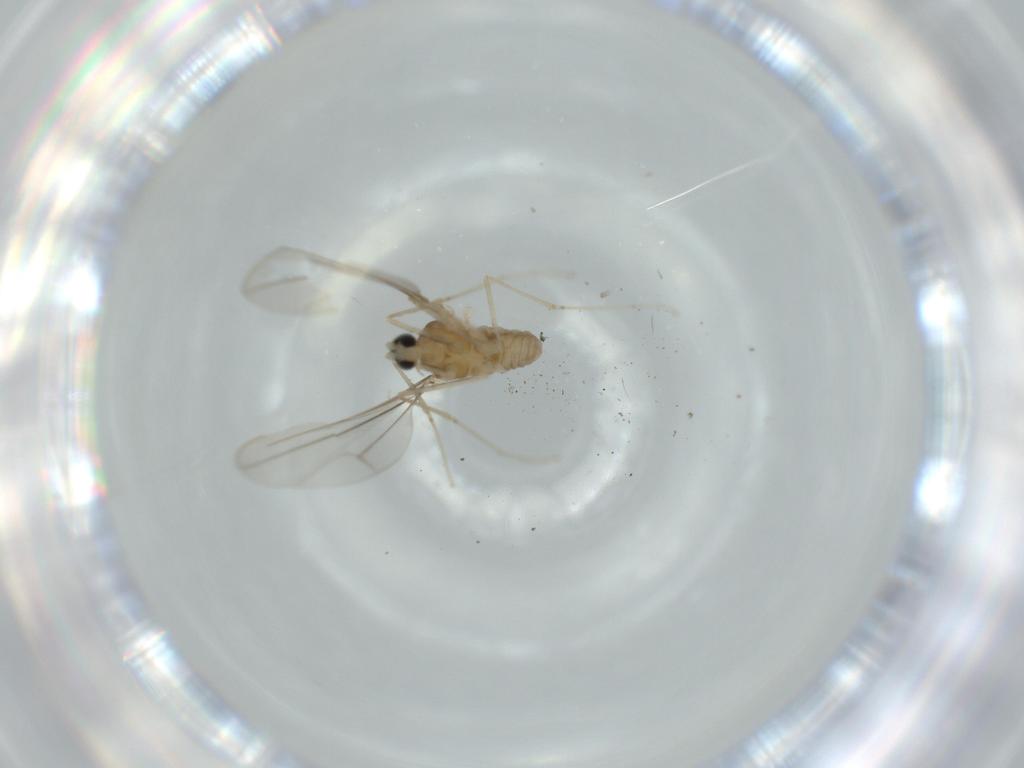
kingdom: Animalia
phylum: Arthropoda
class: Insecta
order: Diptera
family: Cecidomyiidae
